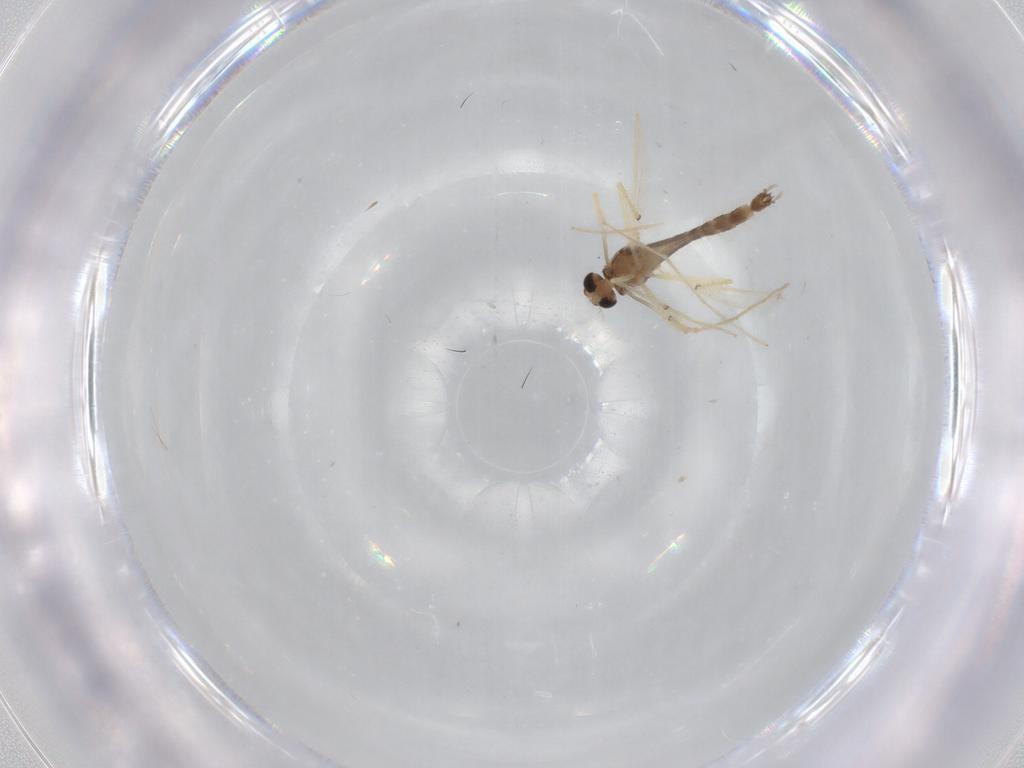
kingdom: Animalia
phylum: Arthropoda
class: Insecta
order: Diptera
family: Chironomidae
